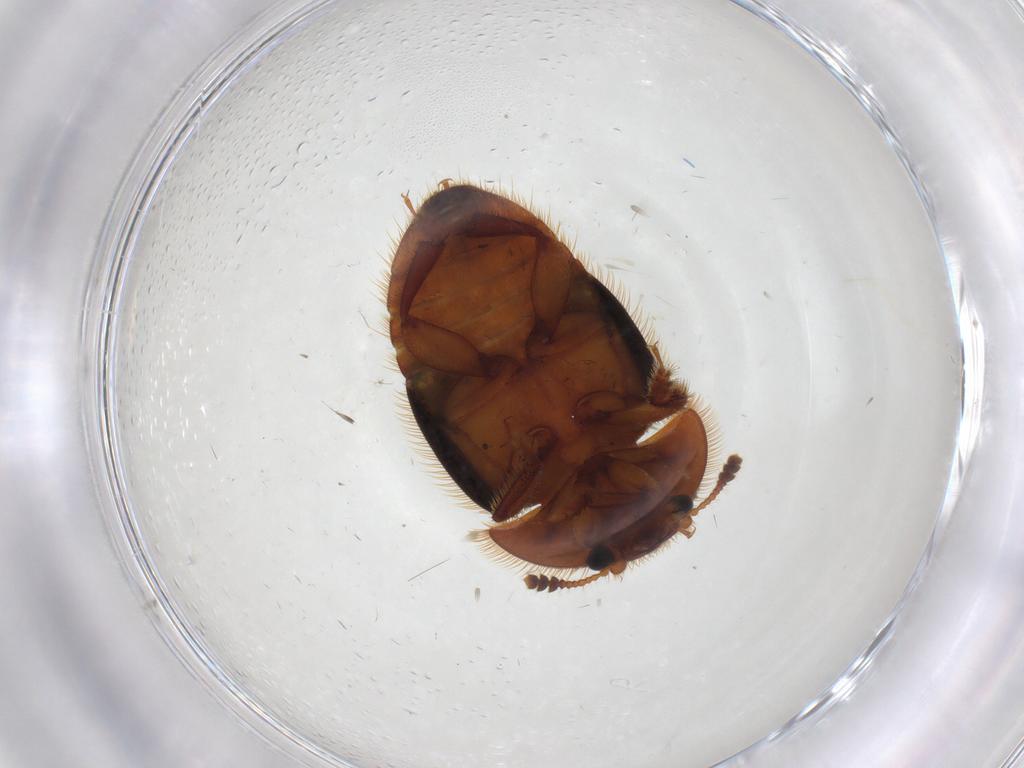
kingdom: Animalia
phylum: Arthropoda
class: Insecta
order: Coleoptera
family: Nitidulidae
